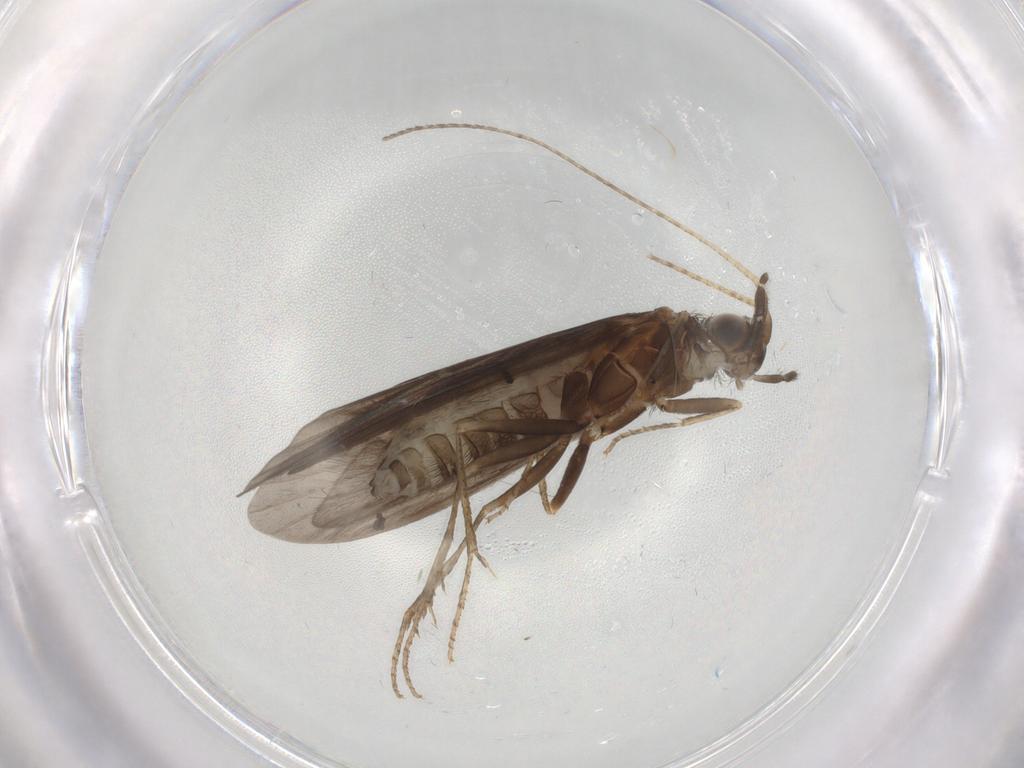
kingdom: Animalia
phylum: Arthropoda
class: Insecta
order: Trichoptera
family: Helicopsychidae
